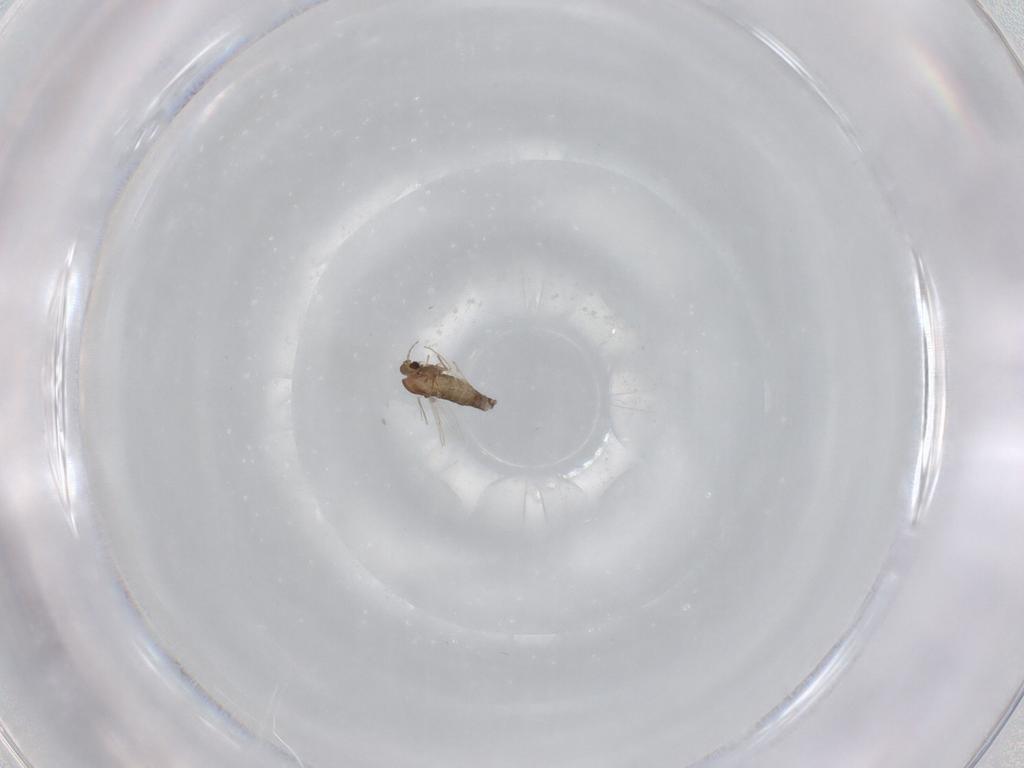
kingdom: Animalia
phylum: Arthropoda
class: Insecta
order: Diptera
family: Chironomidae
